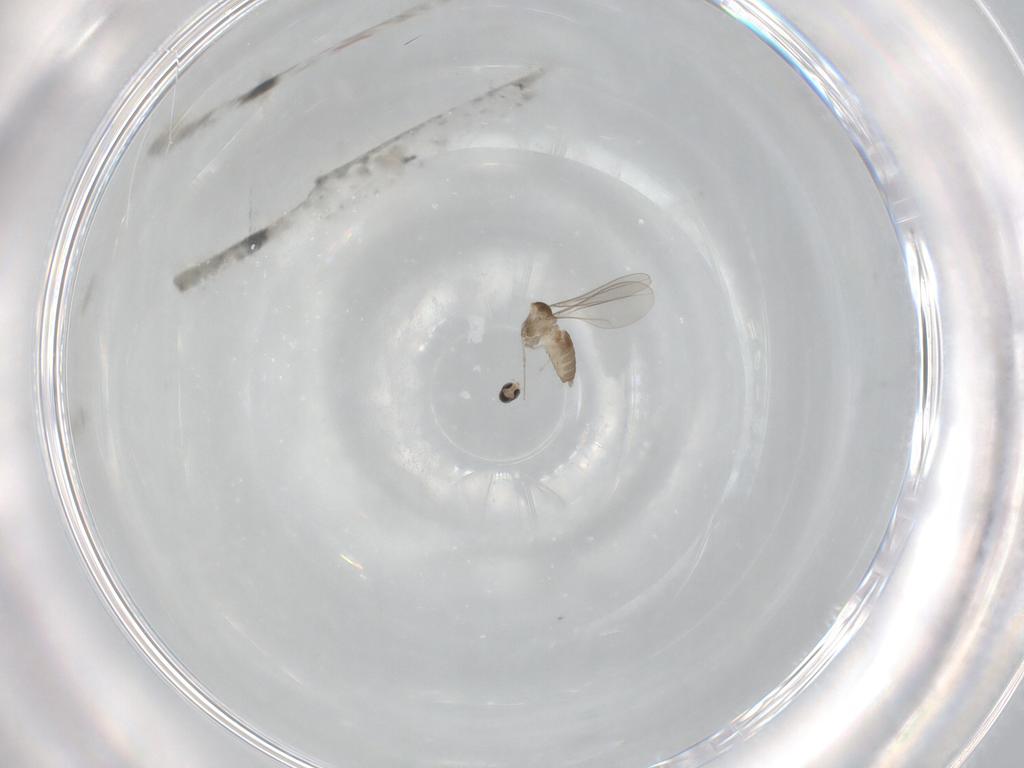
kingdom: Animalia
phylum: Arthropoda
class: Insecta
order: Diptera
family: Cecidomyiidae
